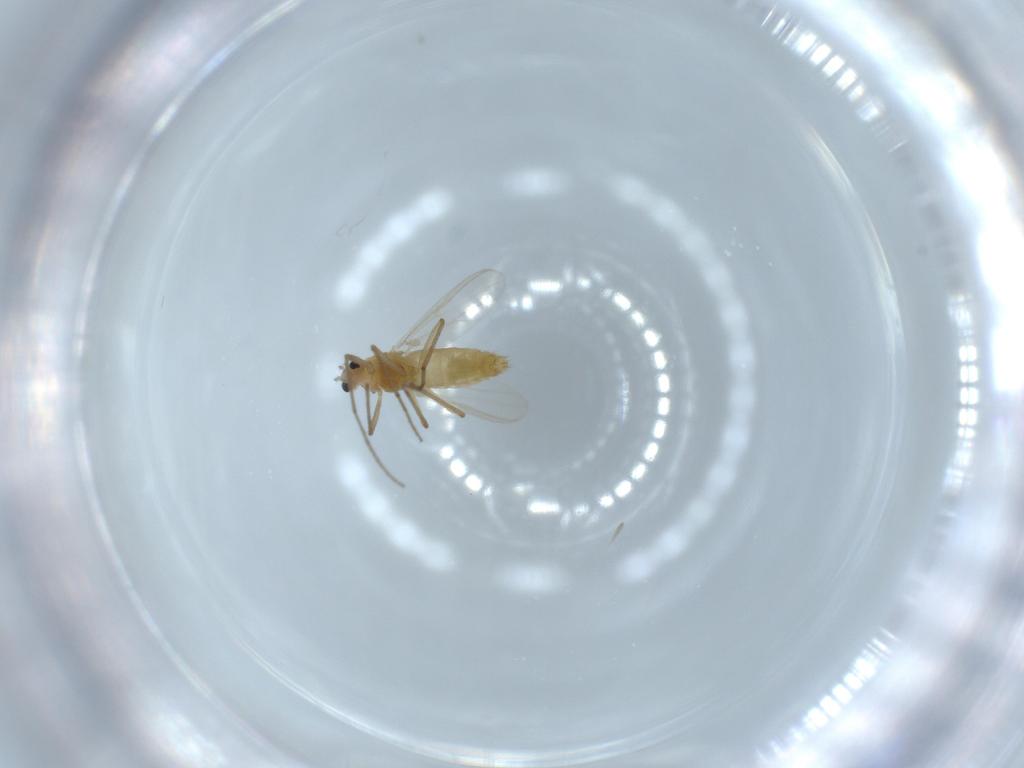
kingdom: Animalia
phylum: Arthropoda
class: Insecta
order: Diptera
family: Chironomidae
